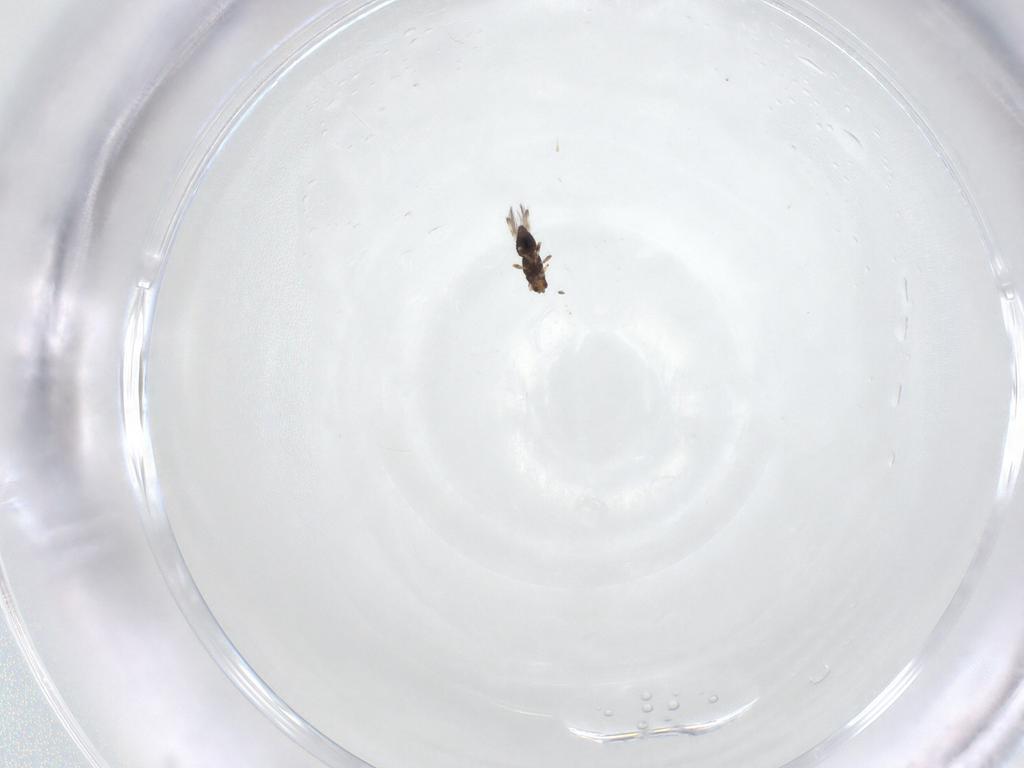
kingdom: Animalia
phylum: Arthropoda
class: Insecta
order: Thysanoptera
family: Thripidae
